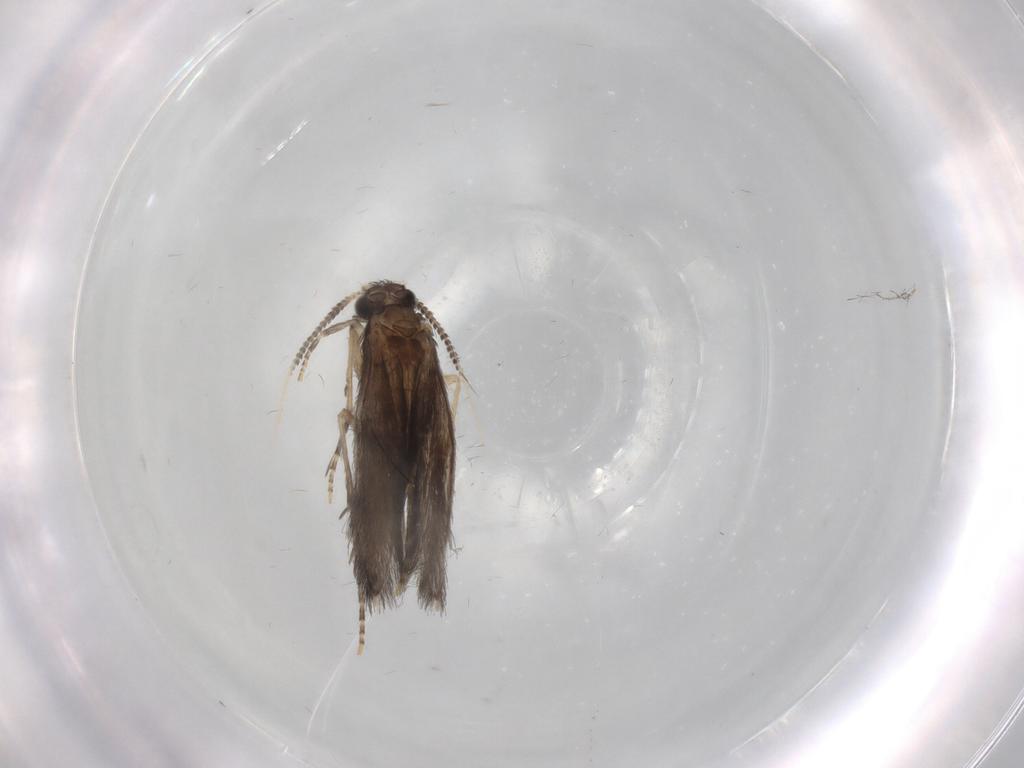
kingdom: Animalia
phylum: Arthropoda
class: Insecta
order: Trichoptera
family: Hydroptilidae
